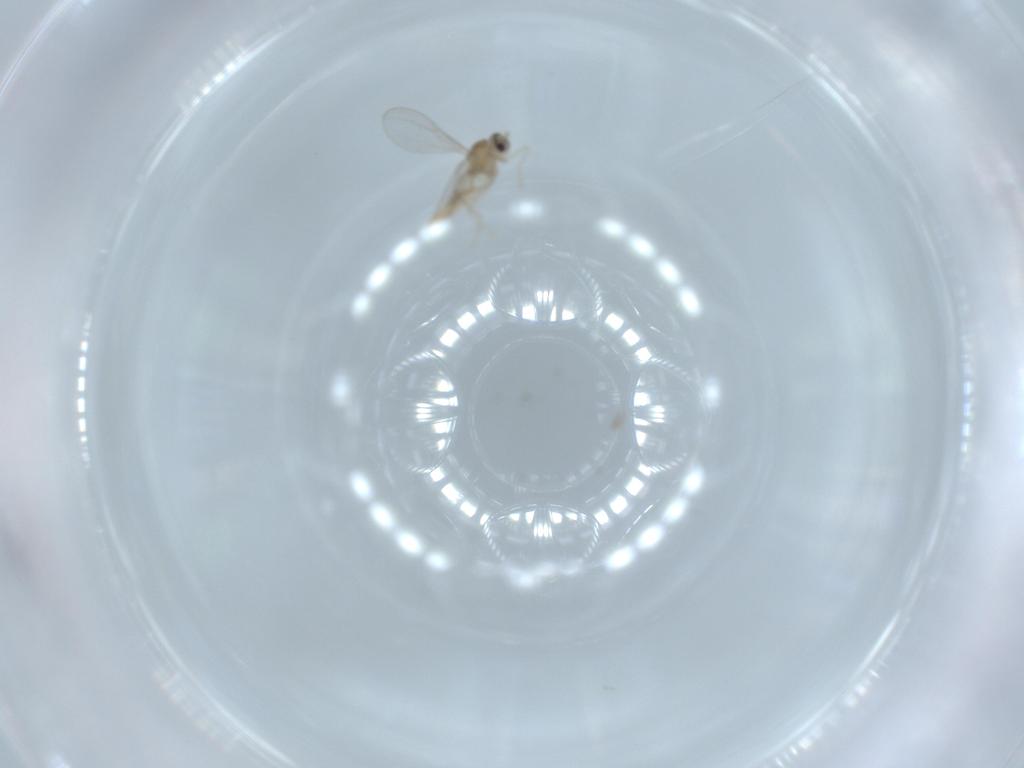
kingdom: Animalia
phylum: Arthropoda
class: Insecta
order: Diptera
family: Cecidomyiidae
